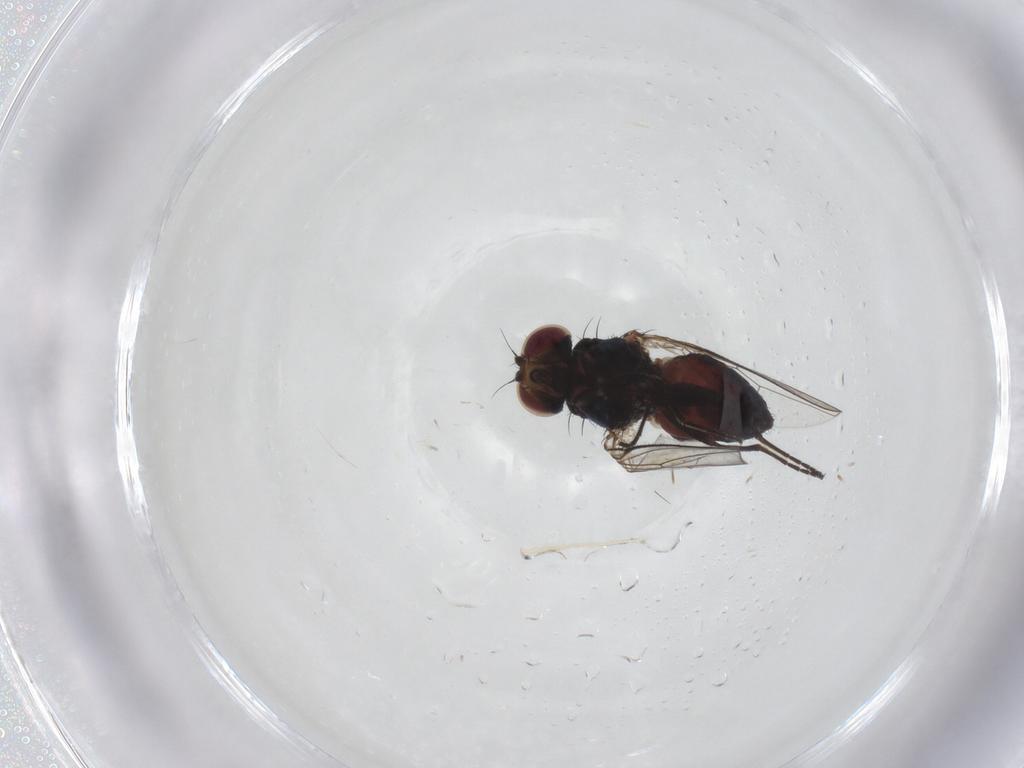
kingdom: Animalia
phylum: Arthropoda
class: Insecta
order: Diptera
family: Carnidae
